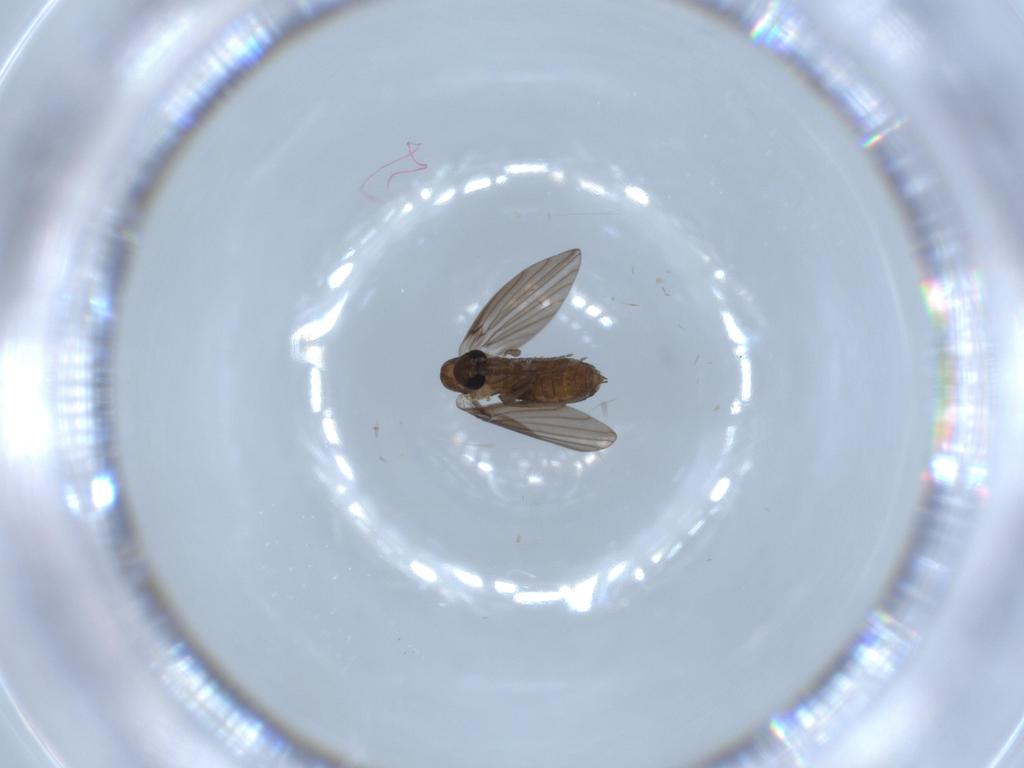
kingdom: Animalia
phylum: Arthropoda
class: Insecta
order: Diptera
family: Psychodidae
